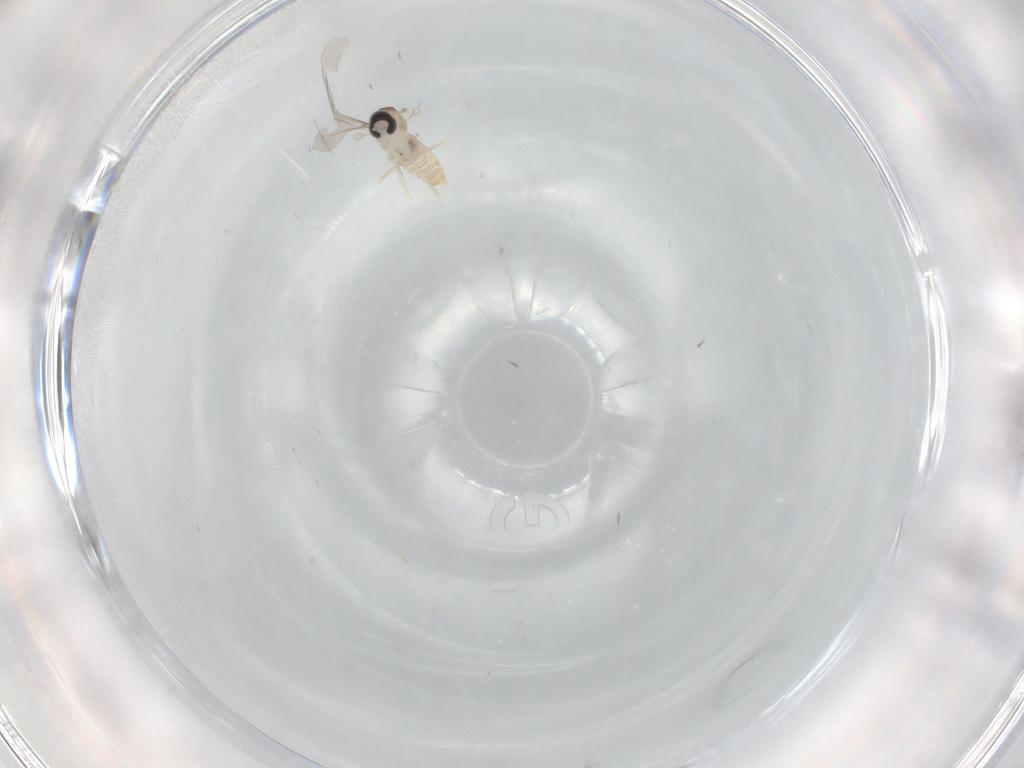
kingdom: Animalia
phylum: Arthropoda
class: Insecta
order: Diptera
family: Cecidomyiidae
